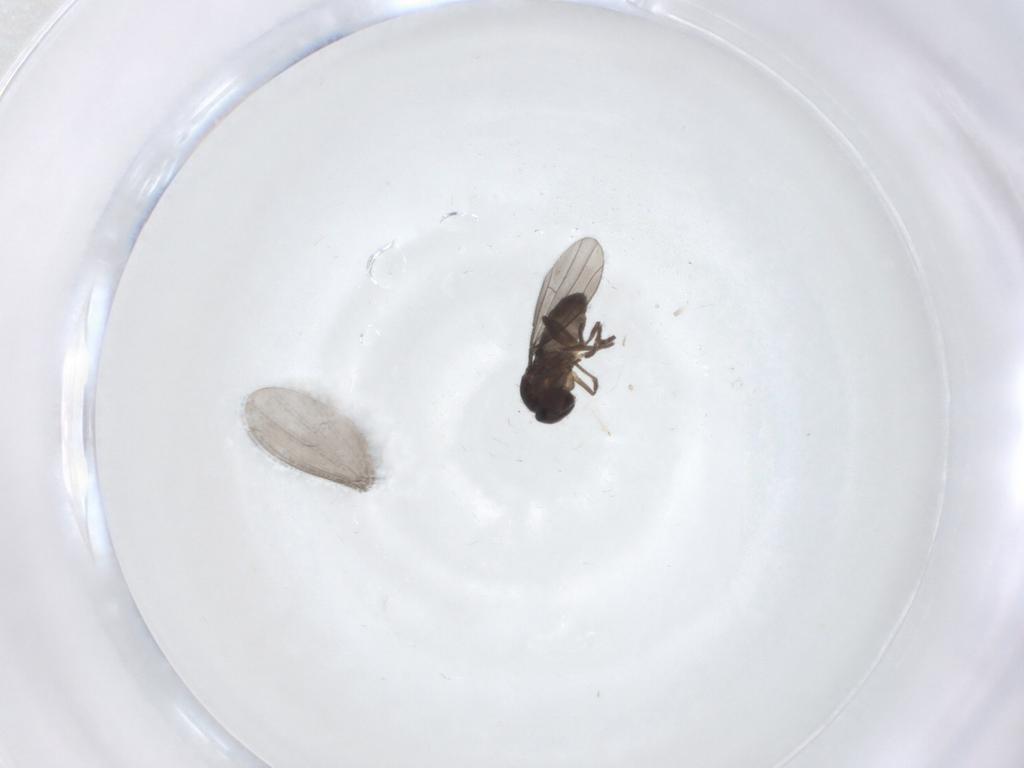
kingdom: Animalia
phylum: Arthropoda
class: Insecta
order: Diptera
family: Dolichopodidae
